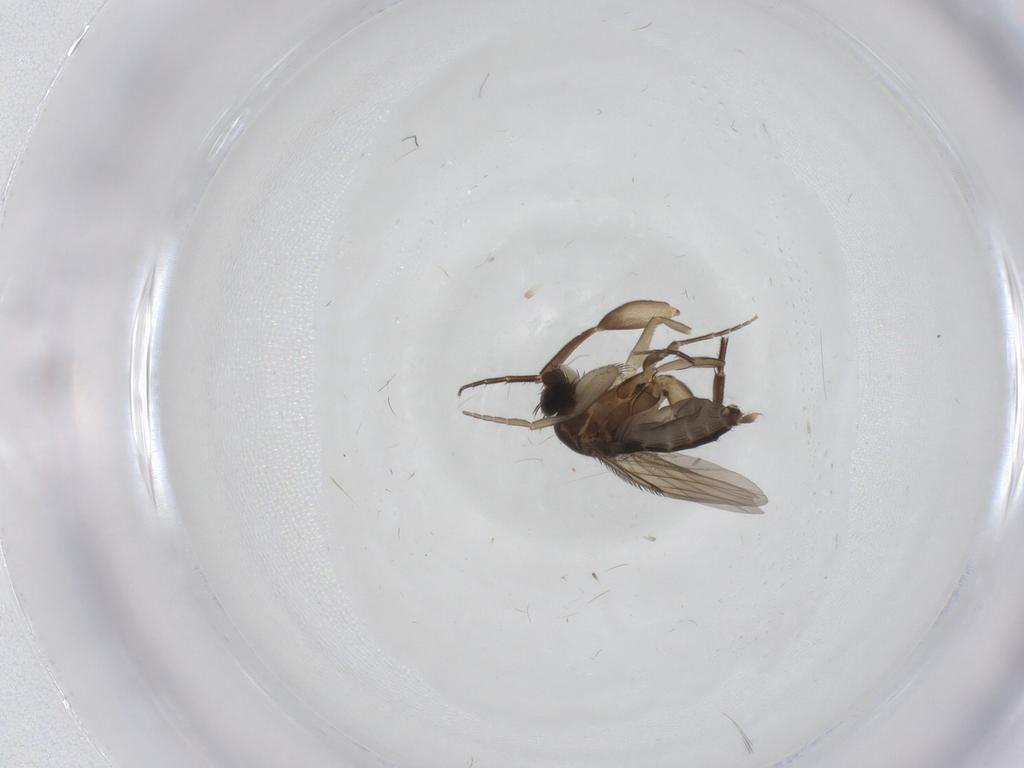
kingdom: Animalia
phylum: Arthropoda
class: Insecta
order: Diptera
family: Phoridae
